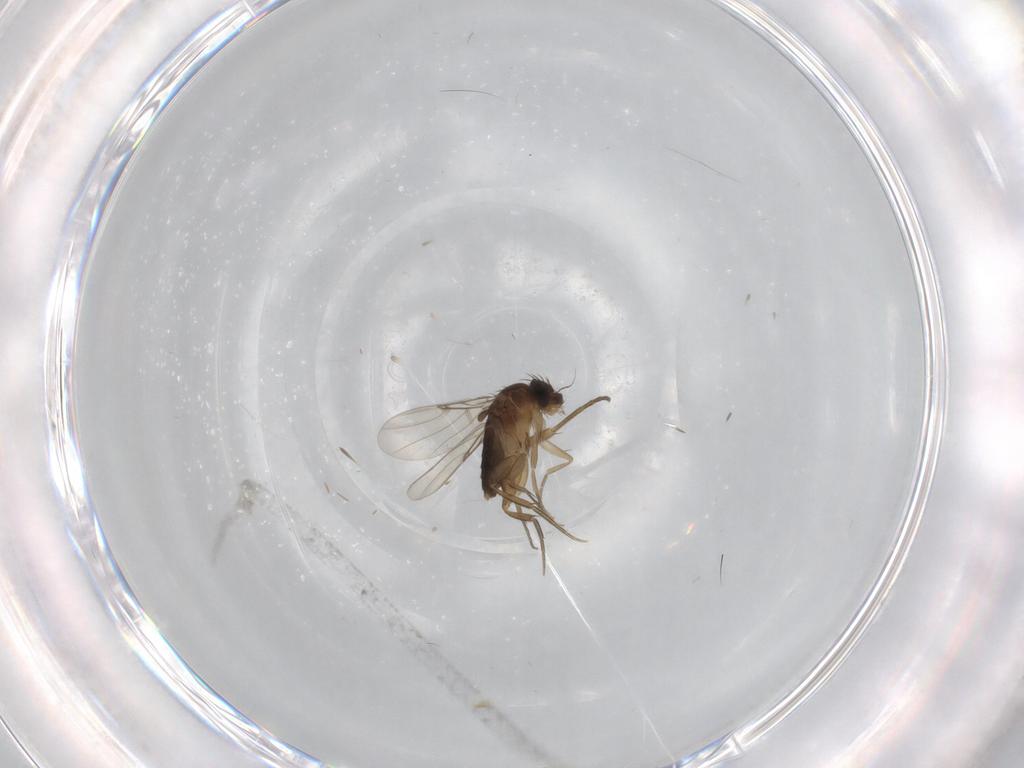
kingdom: Animalia
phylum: Arthropoda
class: Insecta
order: Diptera
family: Phoridae
